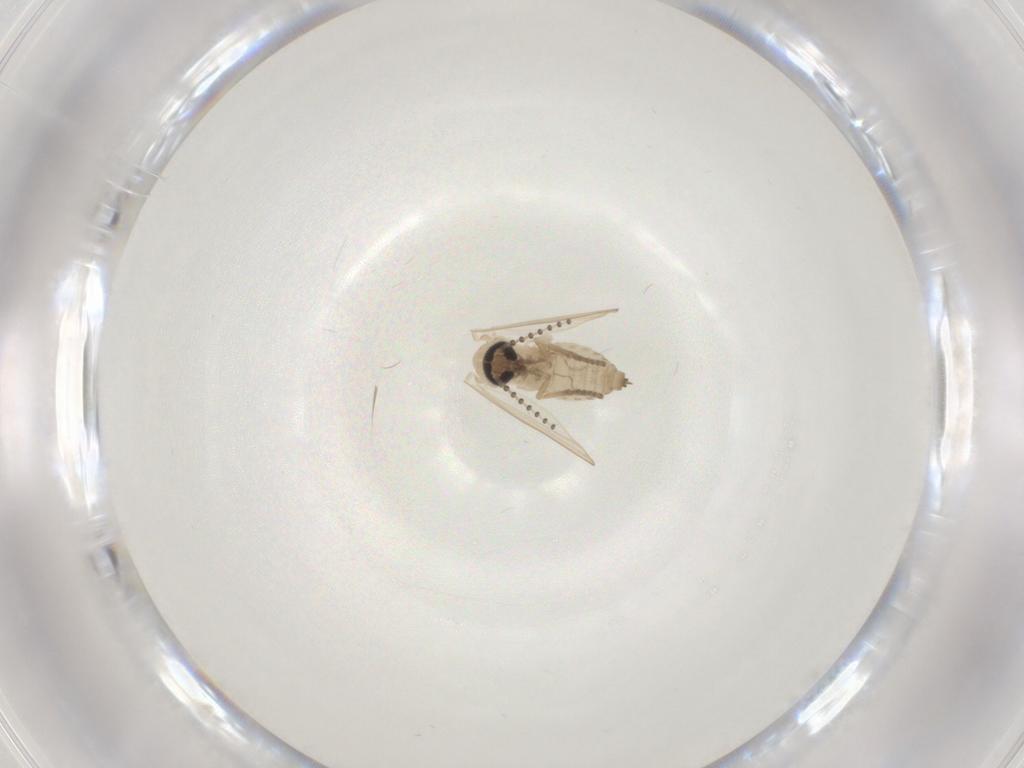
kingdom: Animalia
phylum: Arthropoda
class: Insecta
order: Diptera
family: Psychodidae
